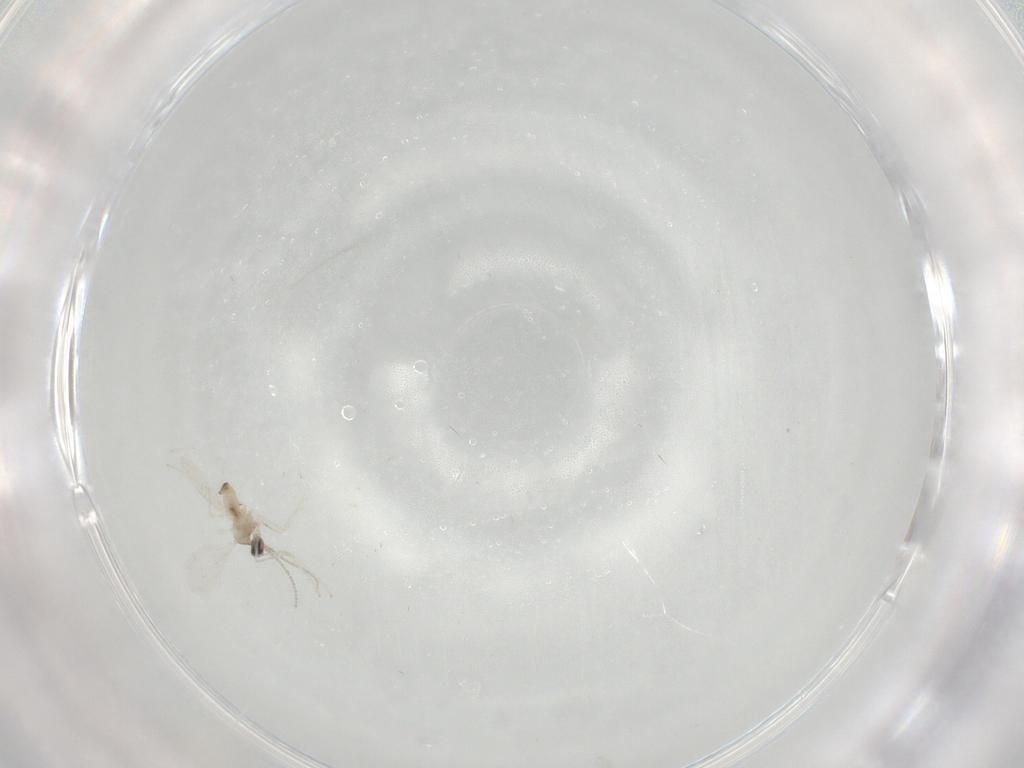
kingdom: Animalia
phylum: Arthropoda
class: Insecta
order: Diptera
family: Cecidomyiidae
